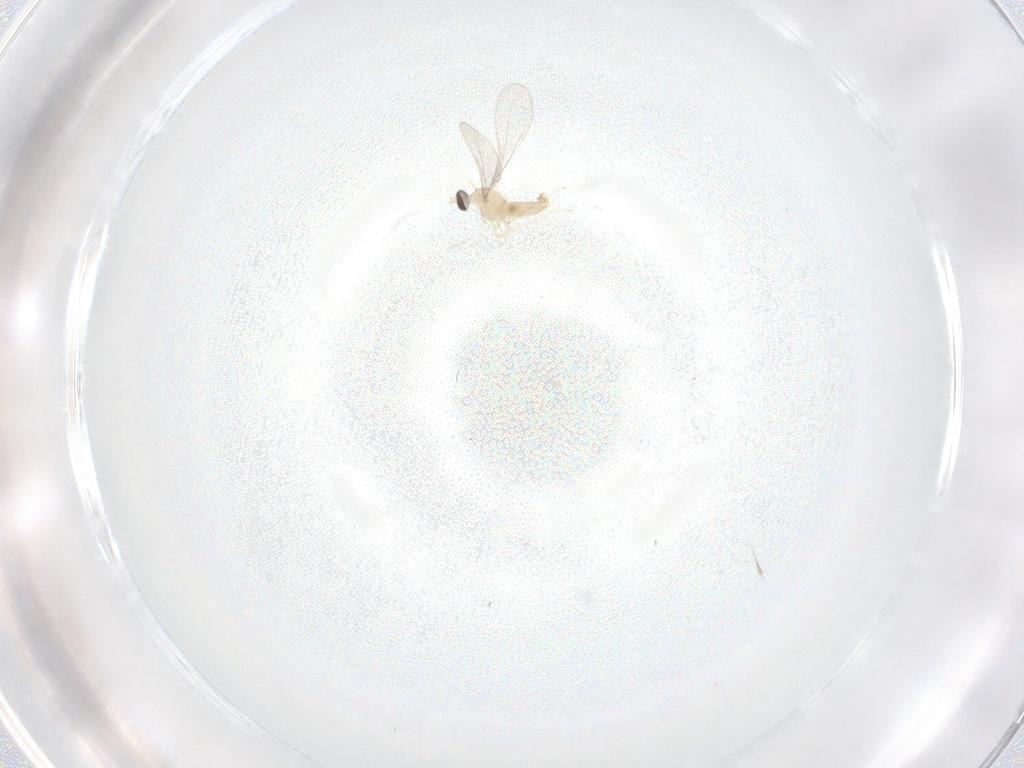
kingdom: Animalia
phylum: Arthropoda
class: Insecta
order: Diptera
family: Cecidomyiidae
